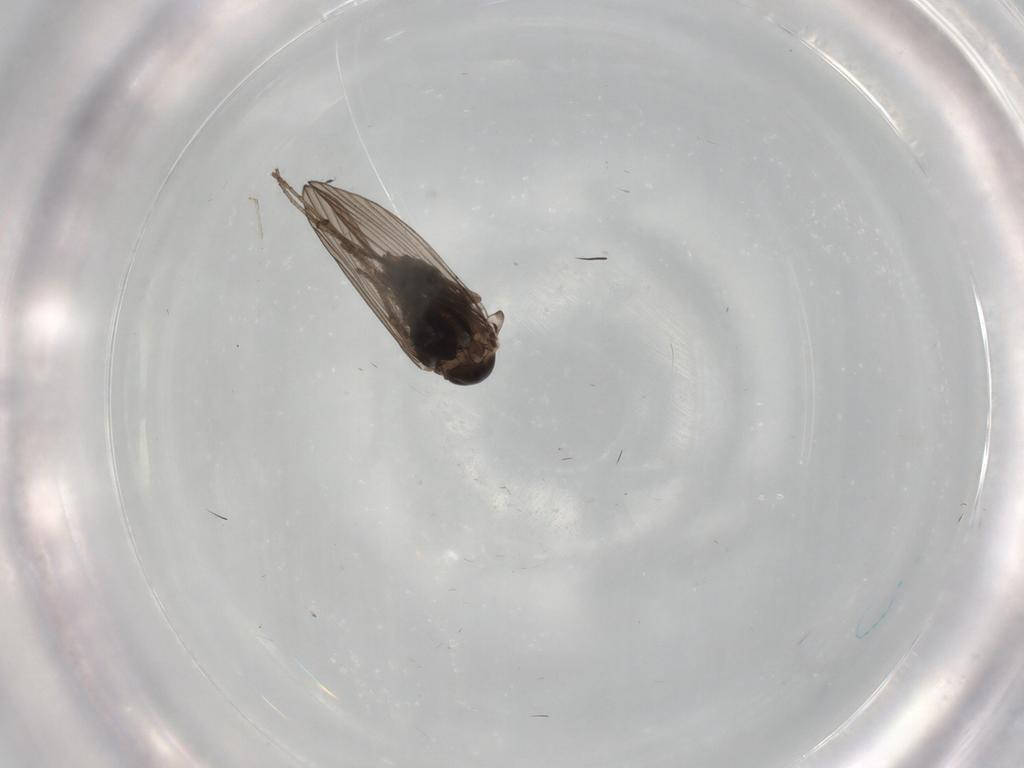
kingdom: Animalia
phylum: Arthropoda
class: Insecta
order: Diptera
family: Psychodidae
